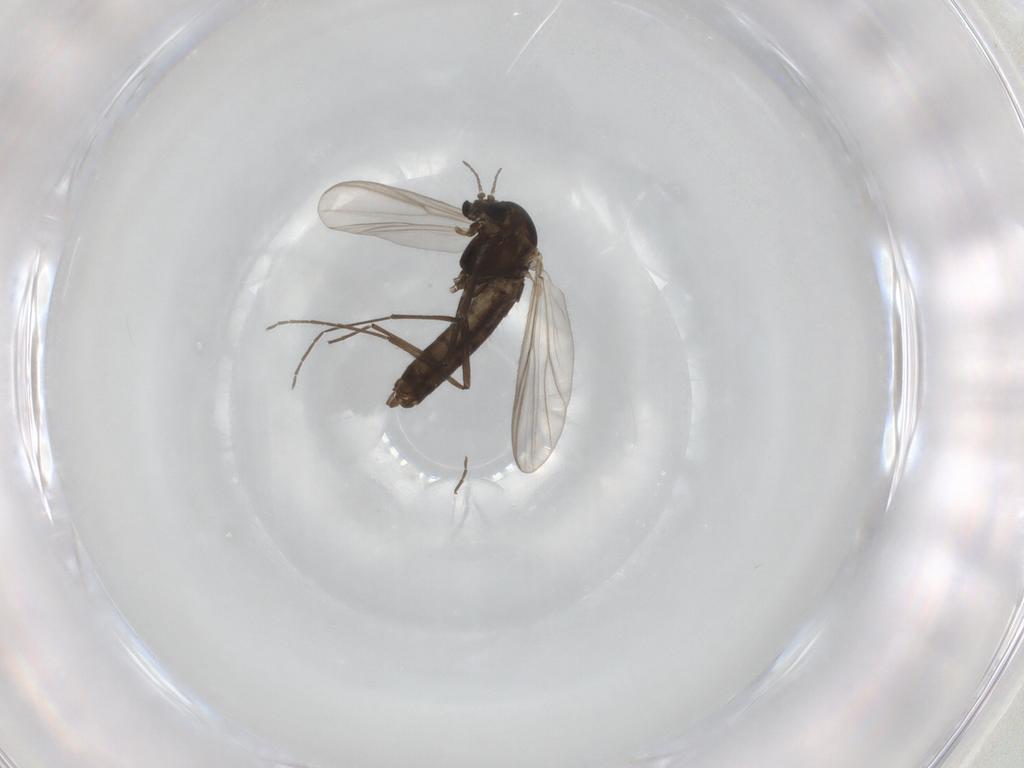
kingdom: Animalia
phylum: Arthropoda
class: Insecta
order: Diptera
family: Chironomidae
